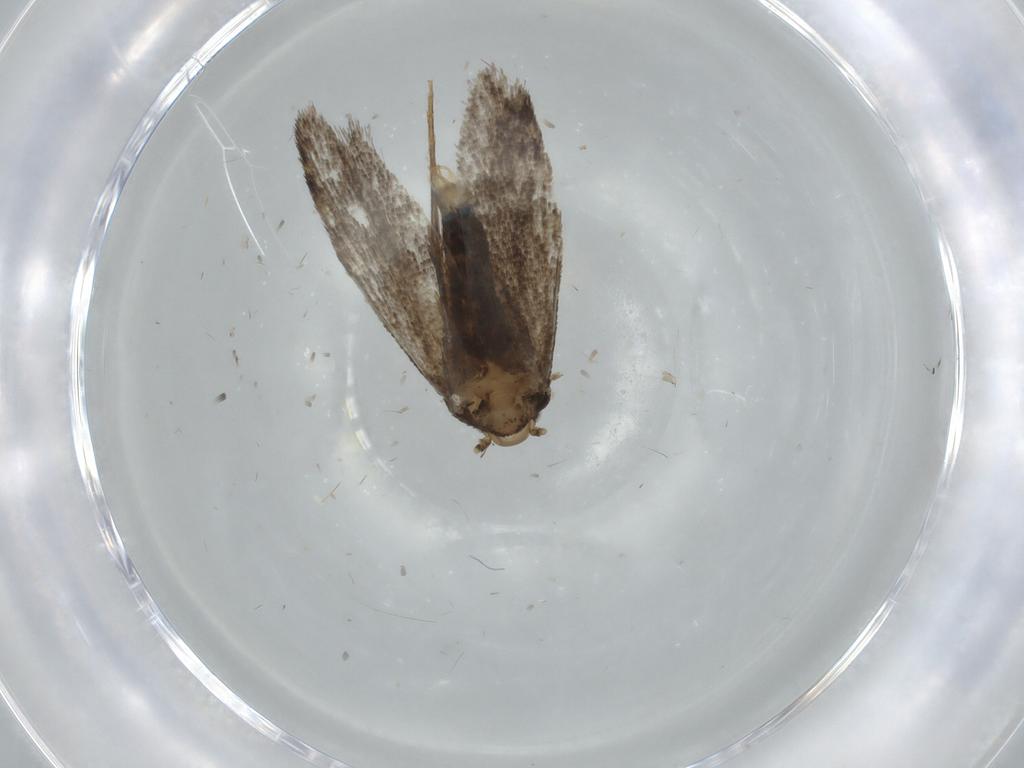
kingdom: Animalia
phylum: Arthropoda
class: Insecta
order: Lepidoptera
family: Tineidae
